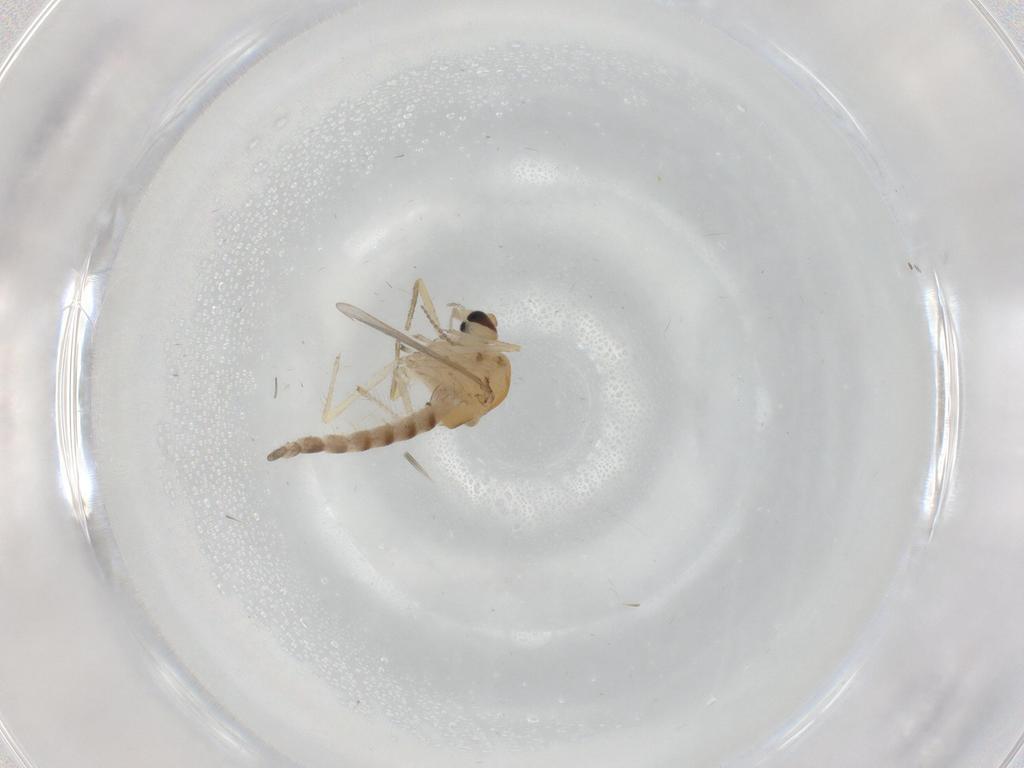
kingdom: Animalia
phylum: Arthropoda
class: Insecta
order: Diptera
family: Chironomidae
